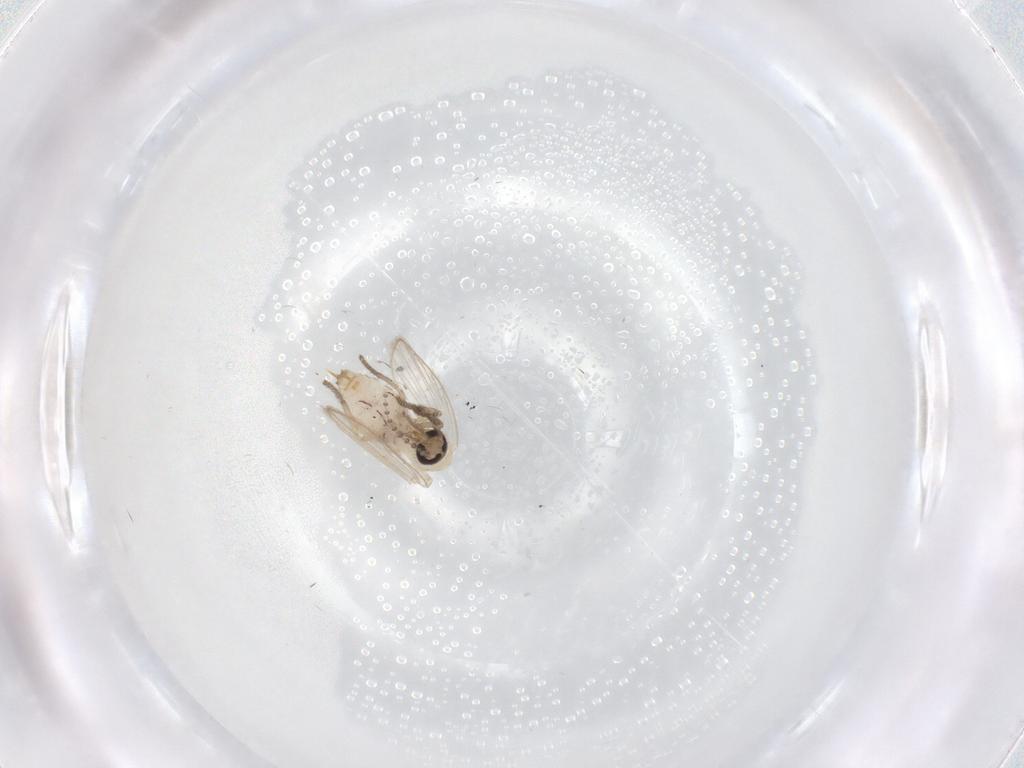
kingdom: Animalia
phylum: Arthropoda
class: Insecta
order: Diptera
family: Psychodidae
